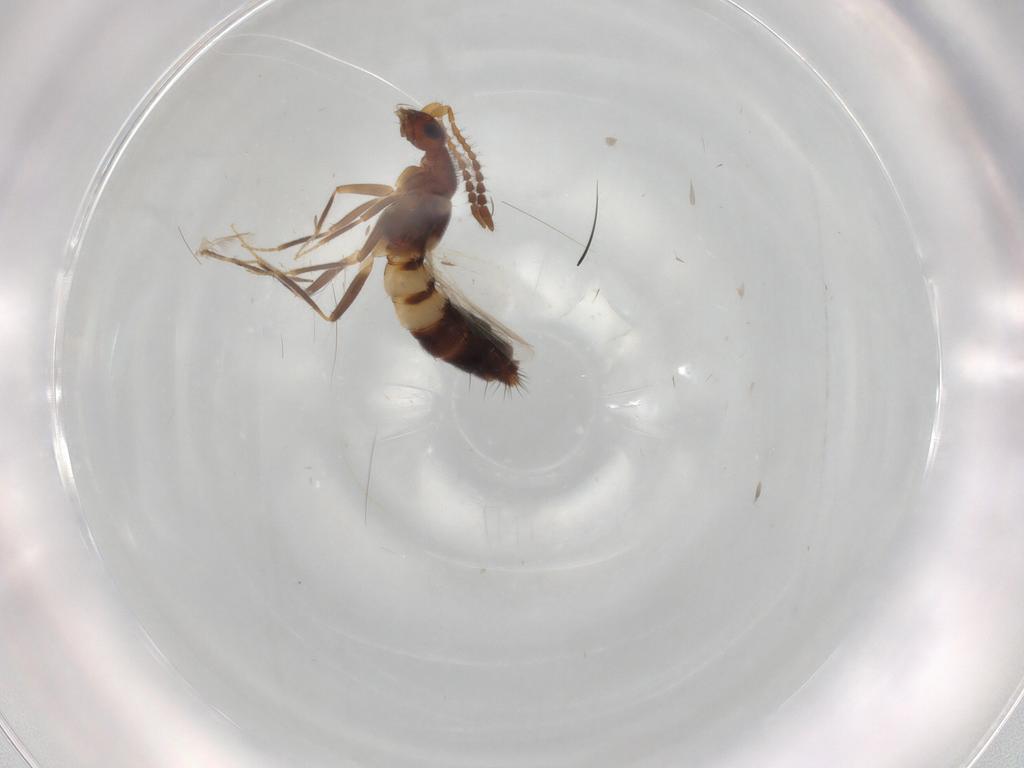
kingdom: Animalia
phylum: Arthropoda
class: Insecta
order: Coleoptera
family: Staphylinidae
